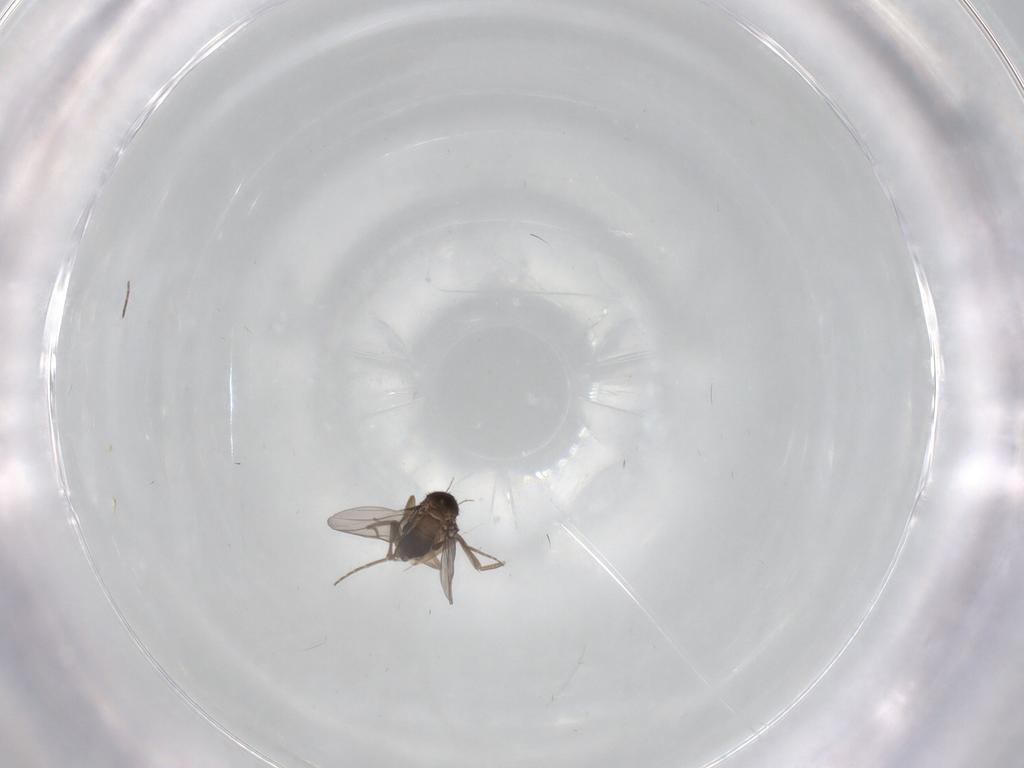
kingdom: Animalia
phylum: Arthropoda
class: Insecta
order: Diptera
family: Phoridae
